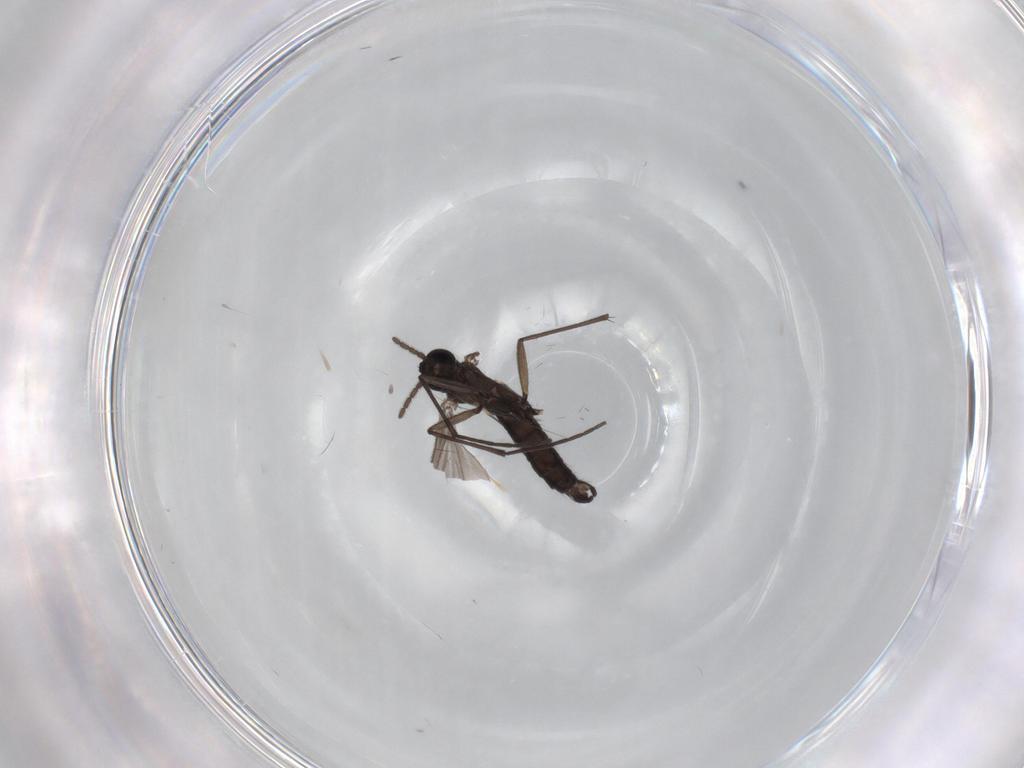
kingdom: Animalia
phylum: Arthropoda
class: Insecta
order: Diptera
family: Sciaridae
